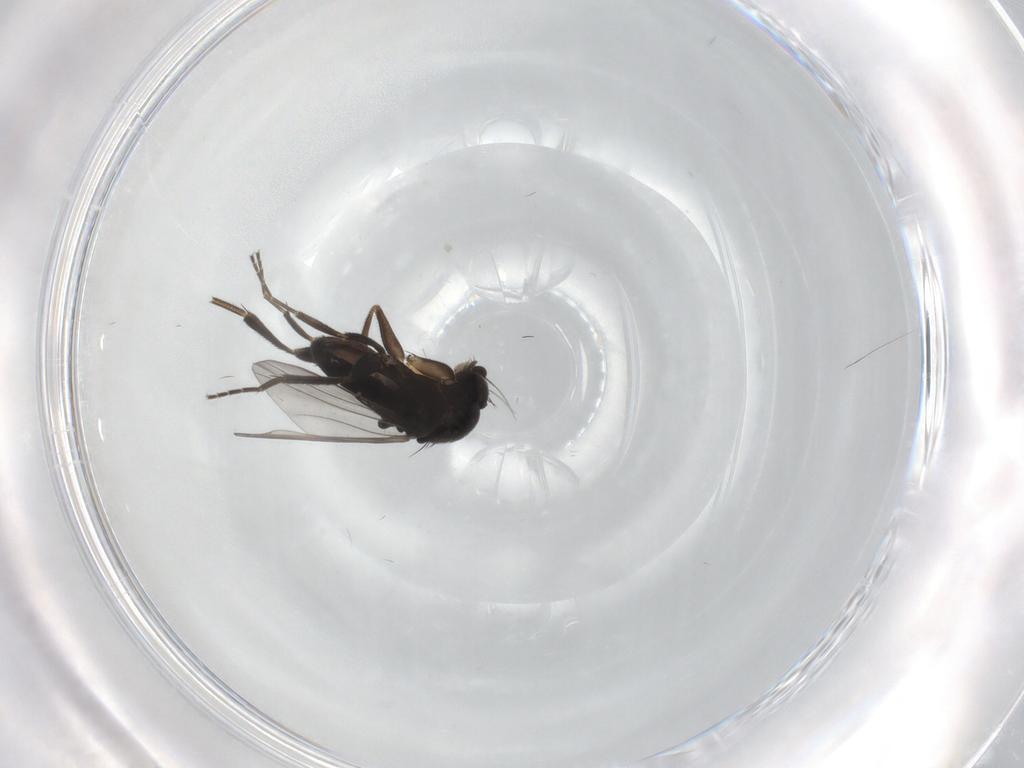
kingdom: Animalia
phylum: Arthropoda
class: Insecta
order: Diptera
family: Phoridae
